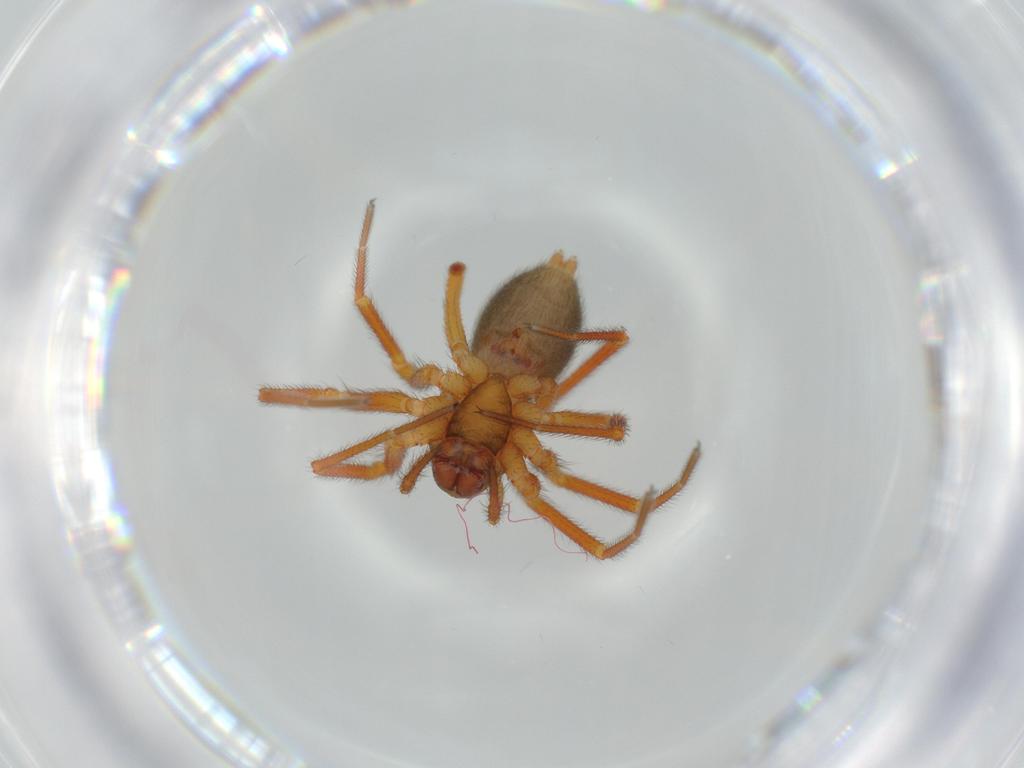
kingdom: Animalia
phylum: Arthropoda
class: Arachnida
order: Araneae
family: Linyphiidae
